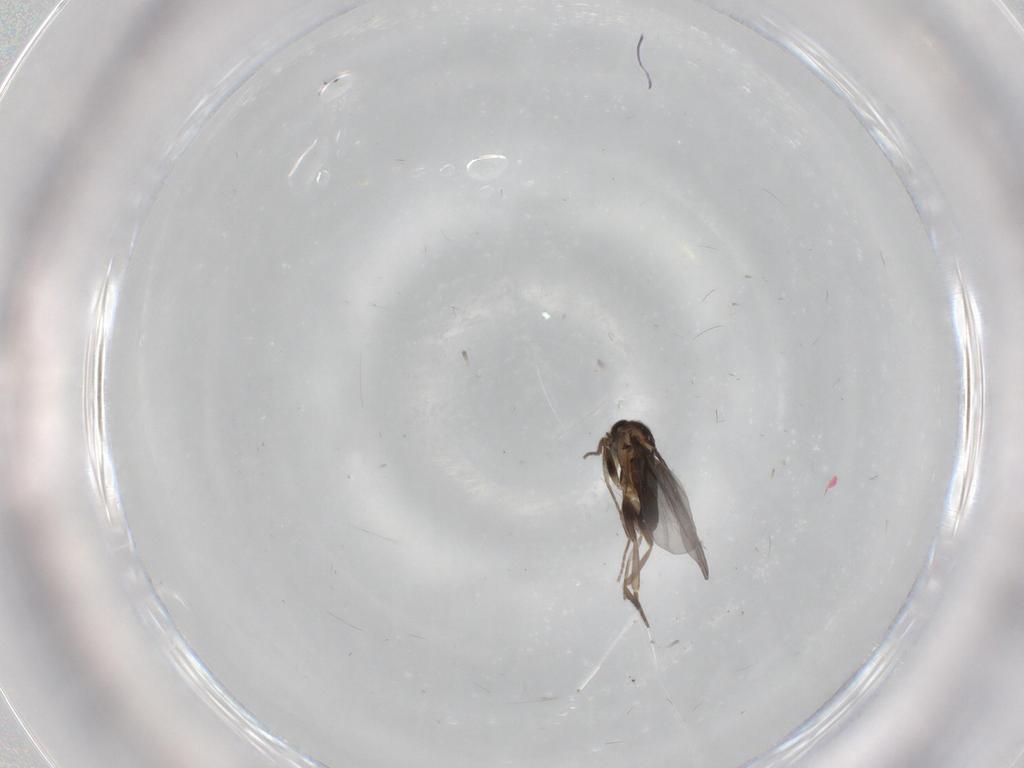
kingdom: Animalia
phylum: Arthropoda
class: Insecta
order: Diptera
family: Phoridae
